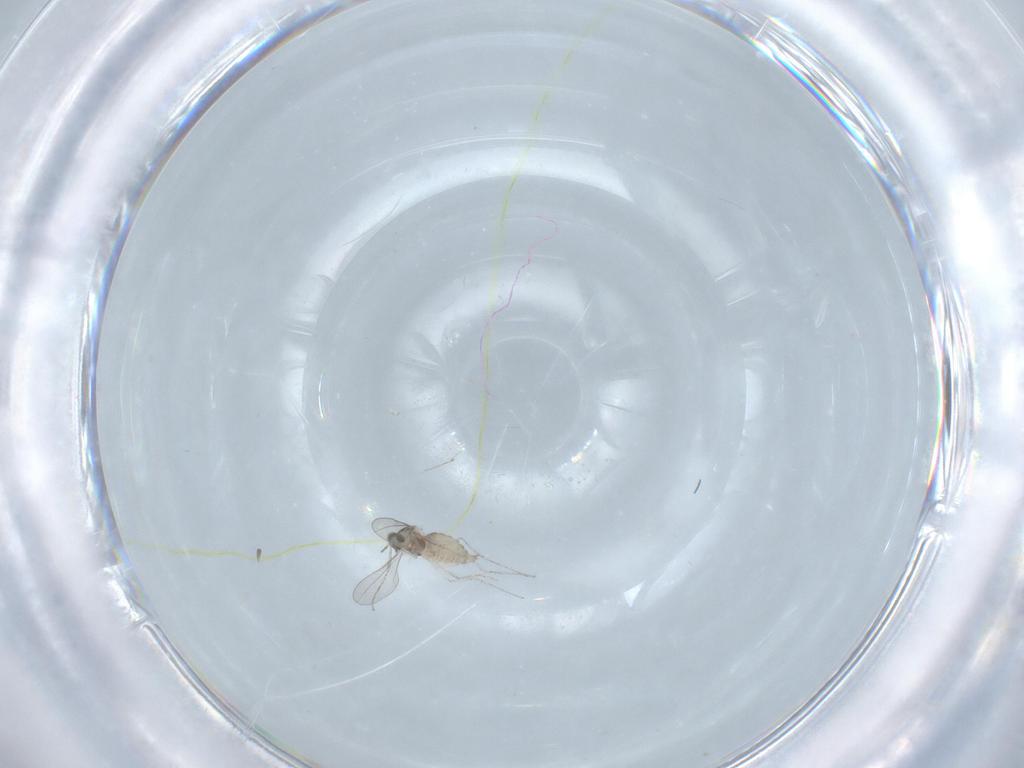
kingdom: Animalia
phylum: Arthropoda
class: Insecta
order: Diptera
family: Cecidomyiidae
